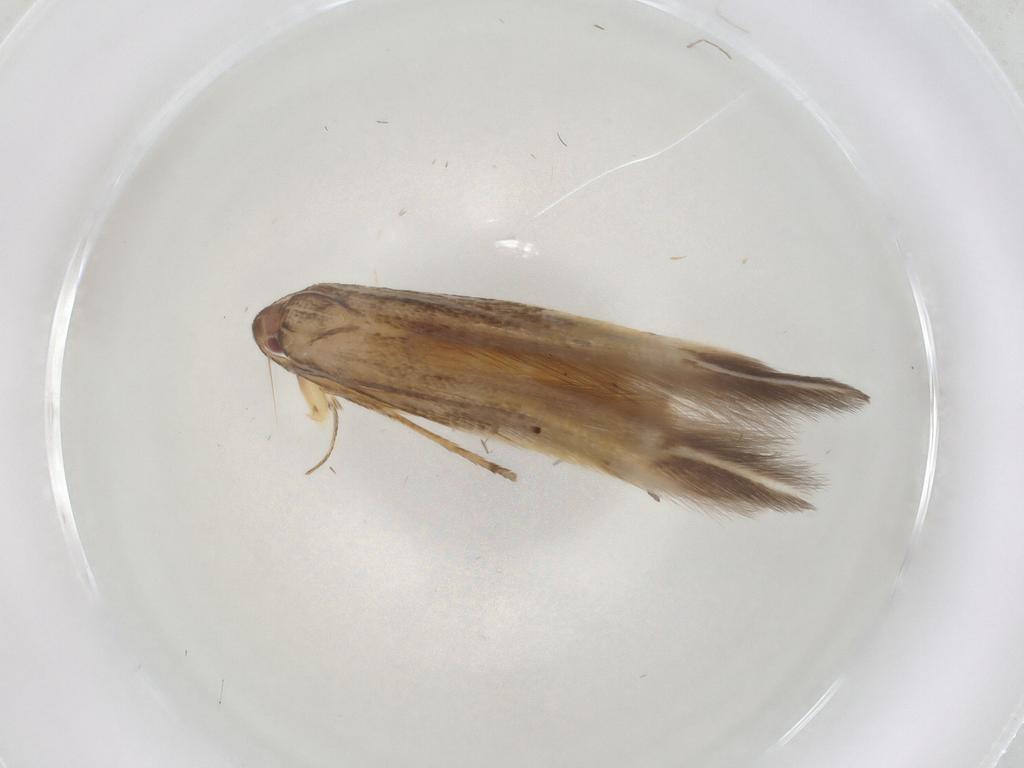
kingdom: Animalia
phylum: Arthropoda
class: Insecta
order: Lepidoptera
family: Cosmopterigidae
